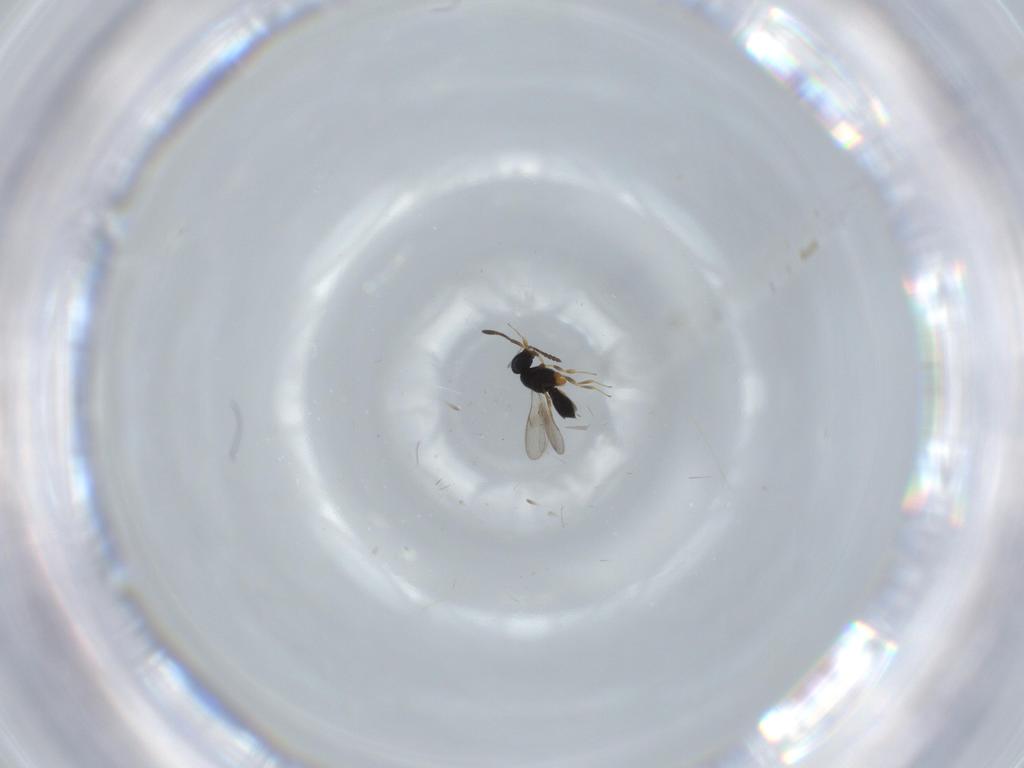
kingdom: Animalia
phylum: Arthropoda
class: Insecta
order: Hymenoptera
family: Scelionidae
